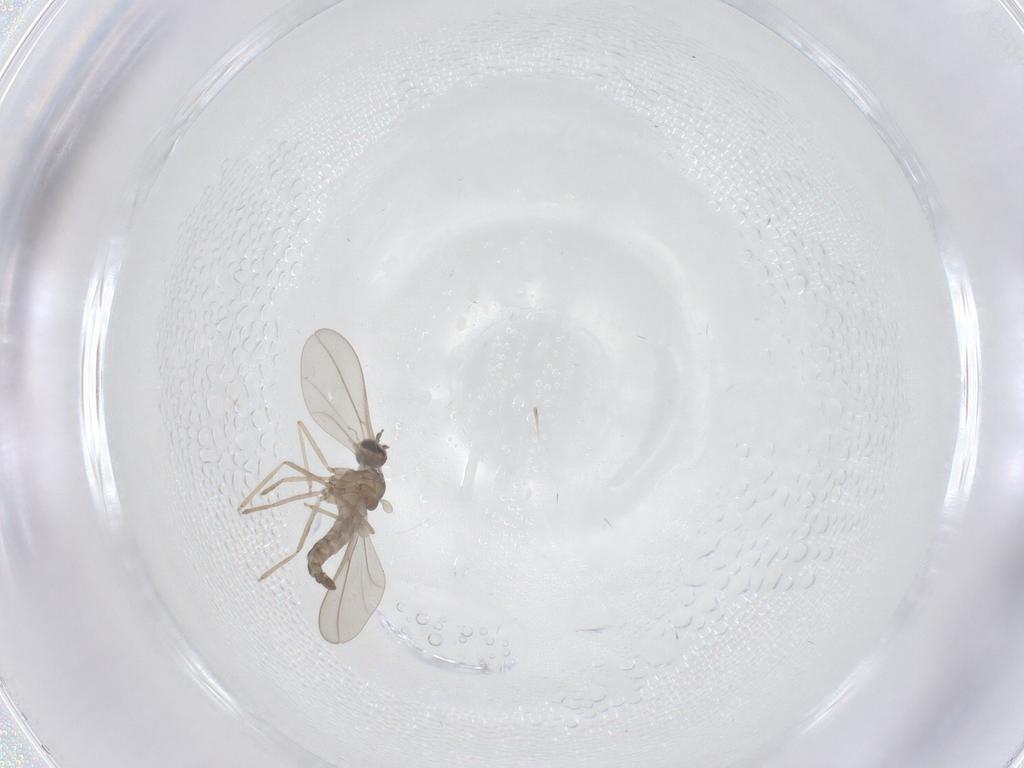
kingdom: Animalia
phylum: Arthropoda
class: Insecta
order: Diptera
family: Cecidomyiidae
